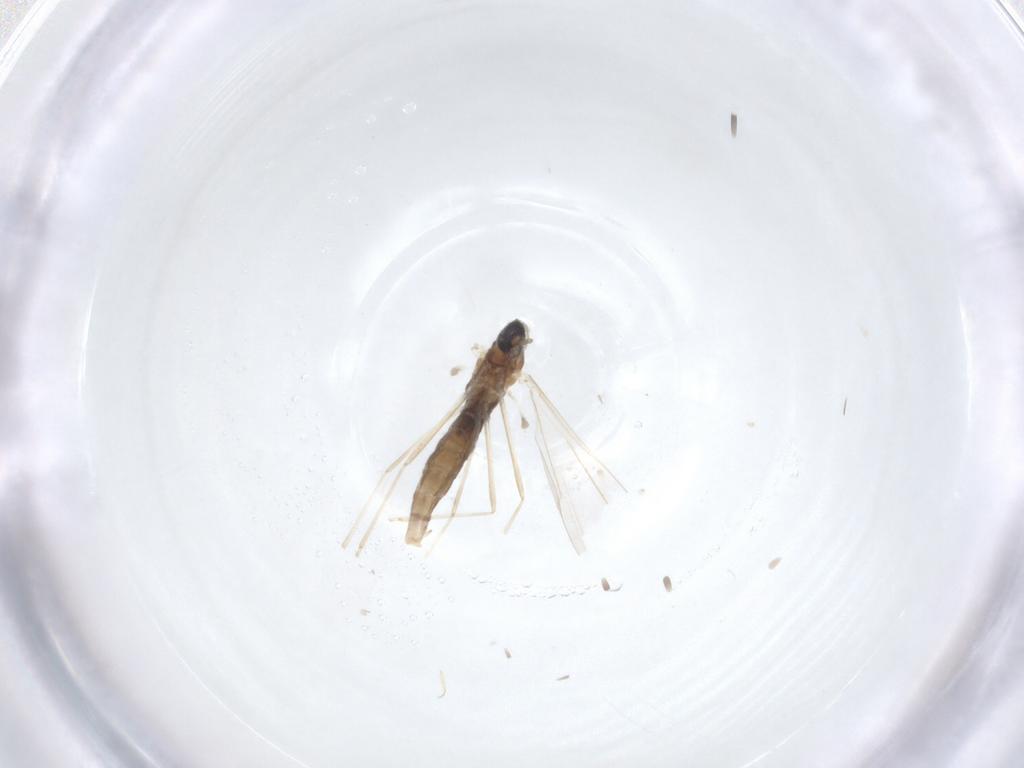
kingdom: Animalia
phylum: Arthropoda
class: Insecta
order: Diptera
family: Cecidomyiidae
